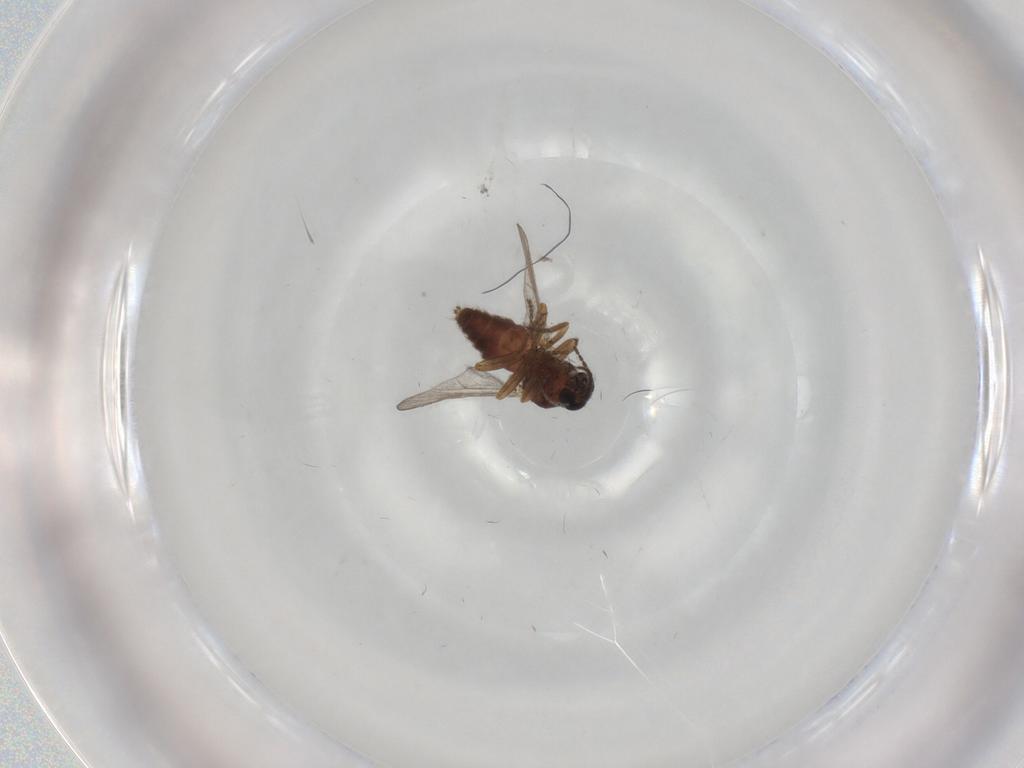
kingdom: Animalia
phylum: Arthropoda
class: Insecta
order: Diptera
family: Ceratopogonidae
